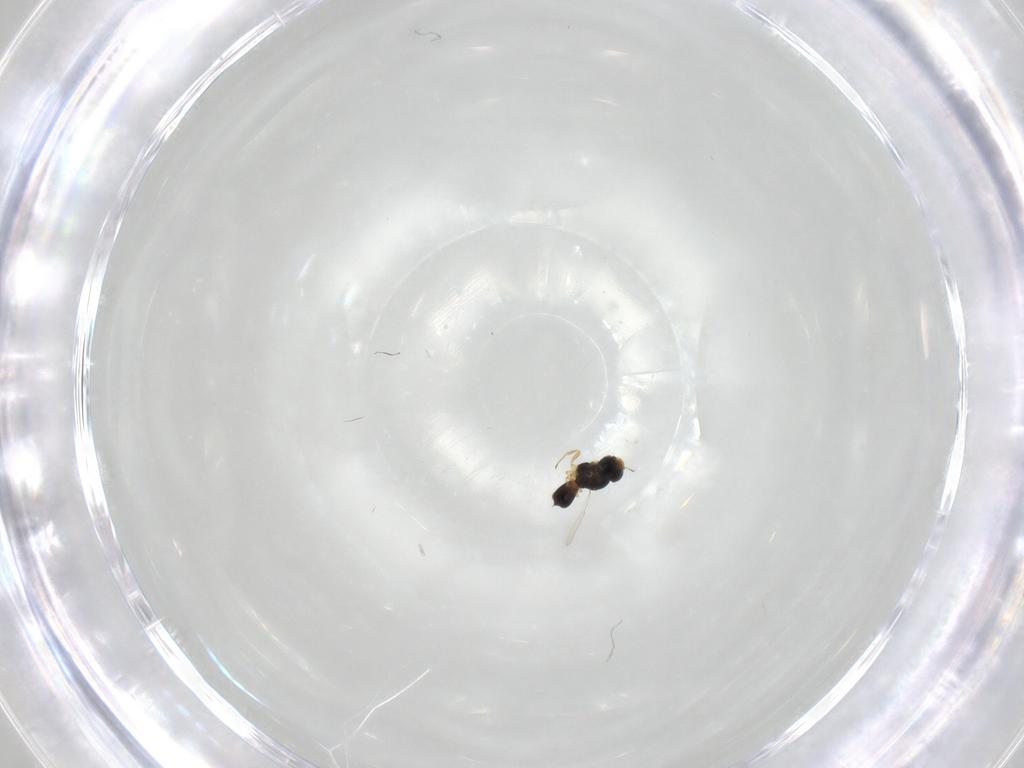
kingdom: Animalia
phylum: Arthropoda
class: Insecta
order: Hymenoptera
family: Scelionidae
